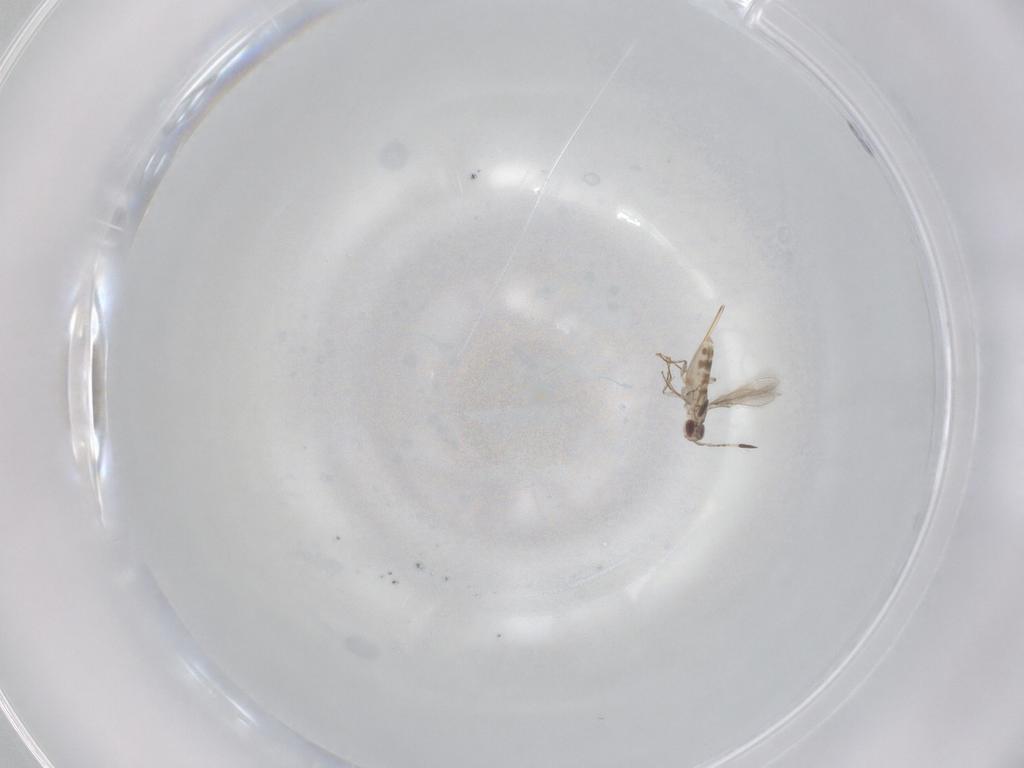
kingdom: Animalia
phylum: Arthropoda
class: Insecta
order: Hymenoptera
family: Mymaridae
